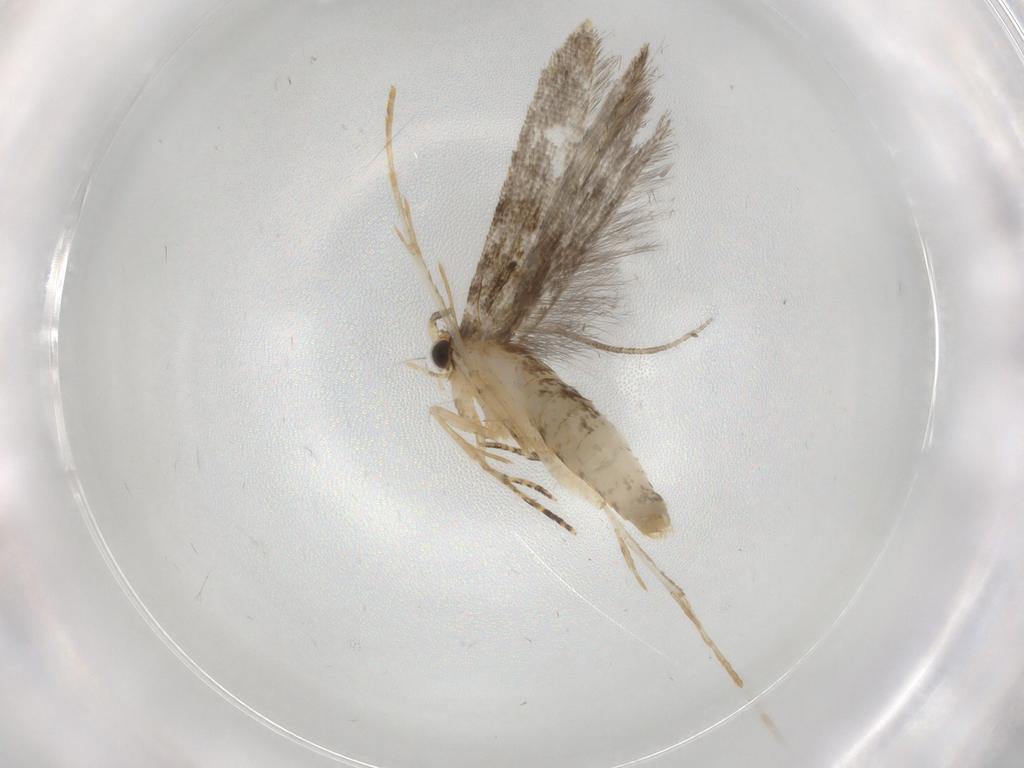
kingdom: Animalia
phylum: Arthropoda
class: Insecta
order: Lepidoptera
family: Tineidae
